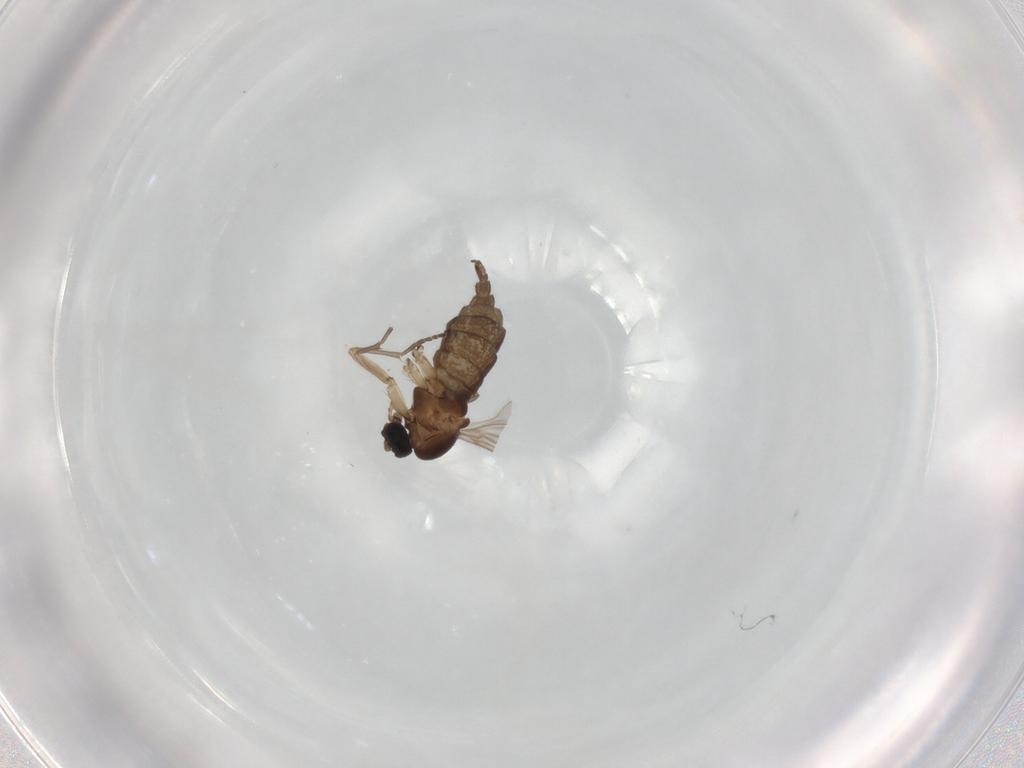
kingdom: Animalia
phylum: Arthropoda
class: Insecta
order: Diptera
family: Sciaridae
